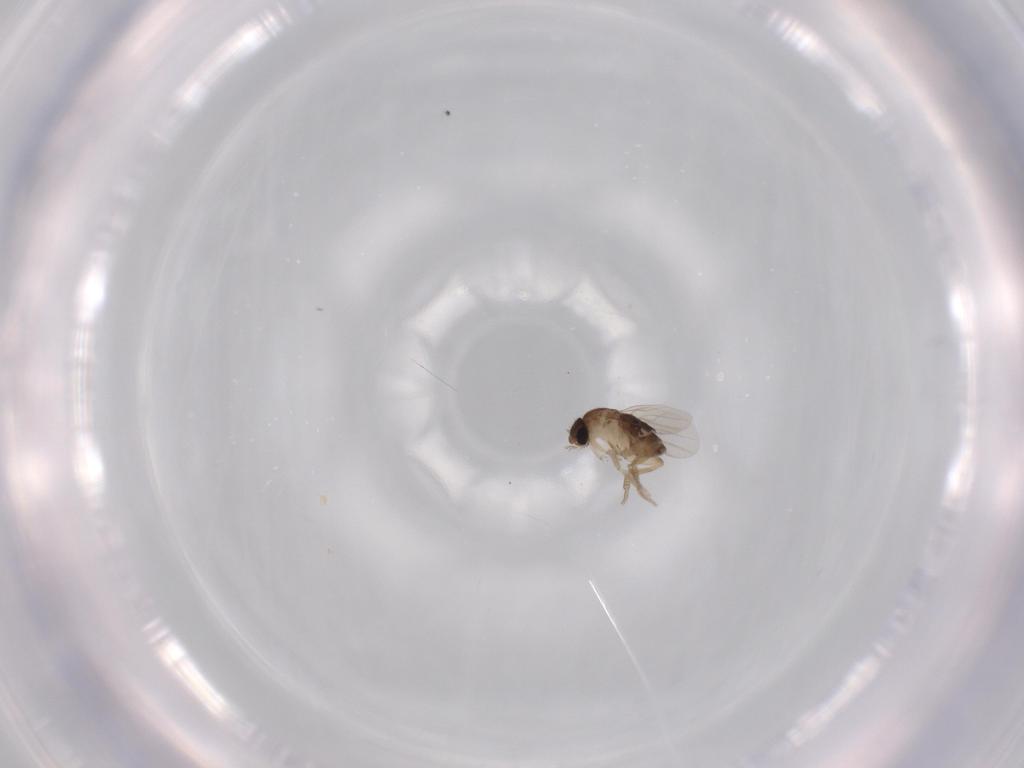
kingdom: Animalia
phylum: Arthropoda
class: Insecta
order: Diptera
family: Phoridae
